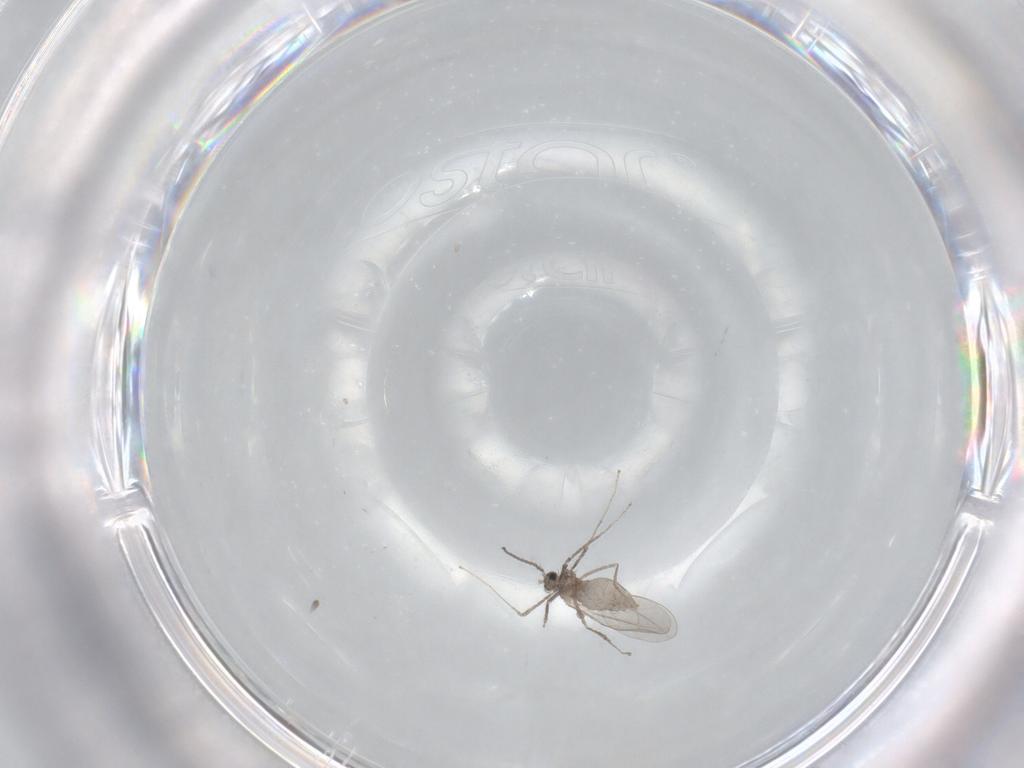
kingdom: Animalia
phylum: Arthropoda
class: Insecta
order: Diptera
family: Cecidomyiidae
